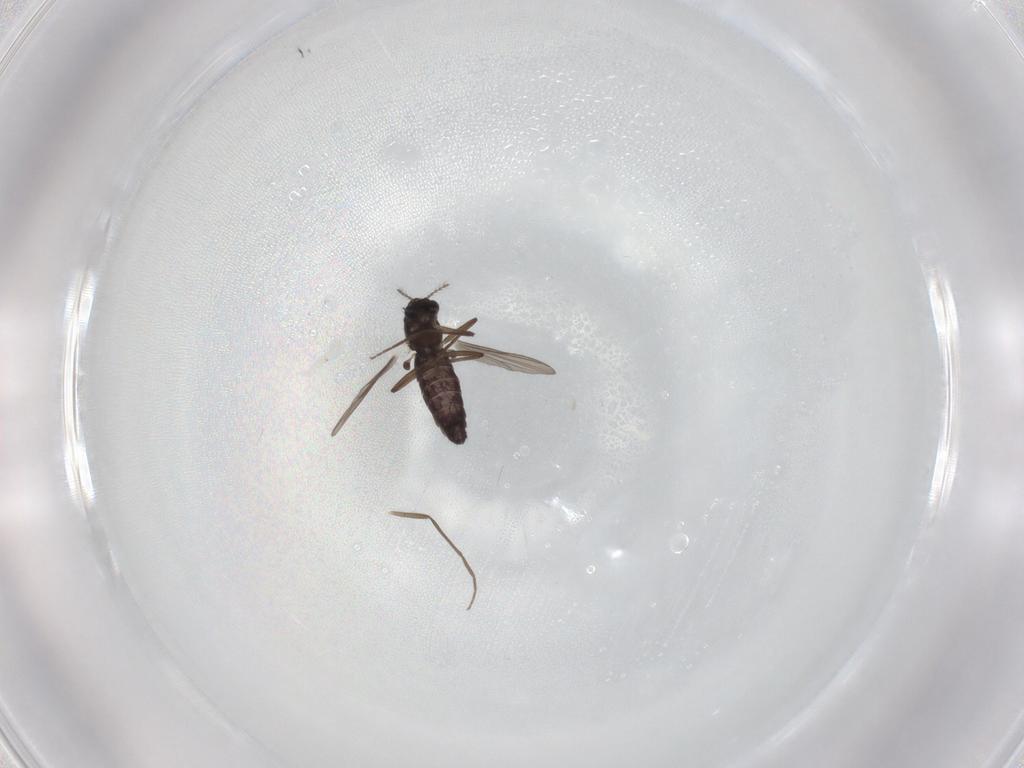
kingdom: Animalia
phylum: Arthropoda
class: Insecta
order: Diptera
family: Chironomidae
